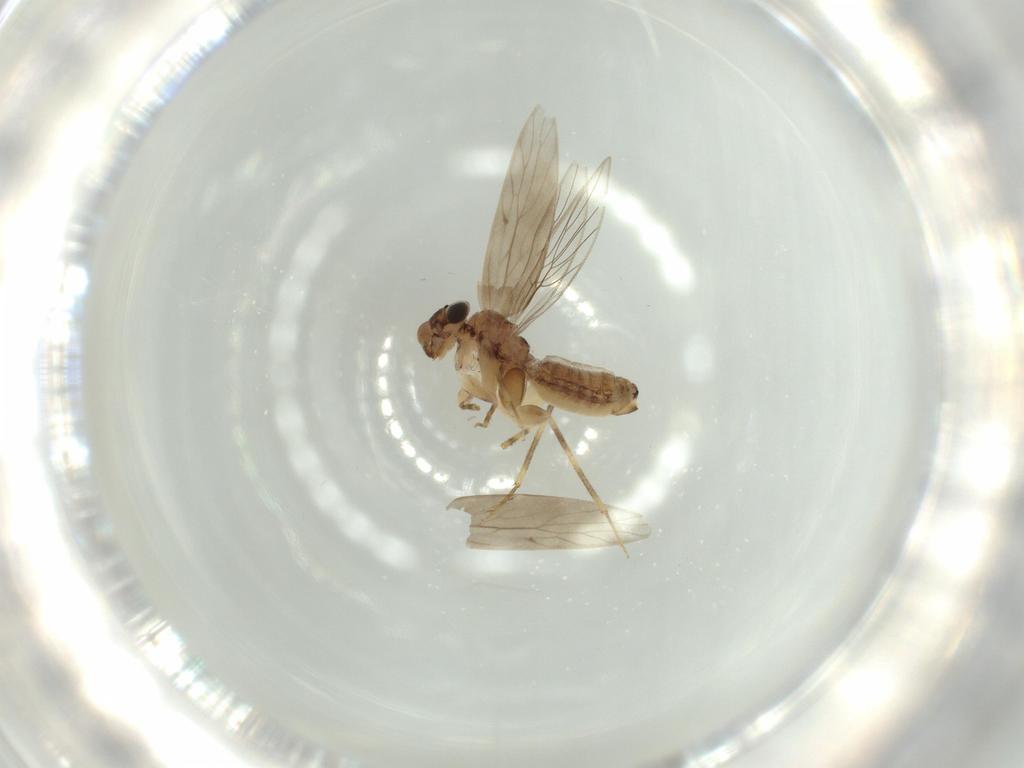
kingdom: Animalia
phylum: Arthropoda
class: Insecta
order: Psocodea
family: Lepidopsocidae
